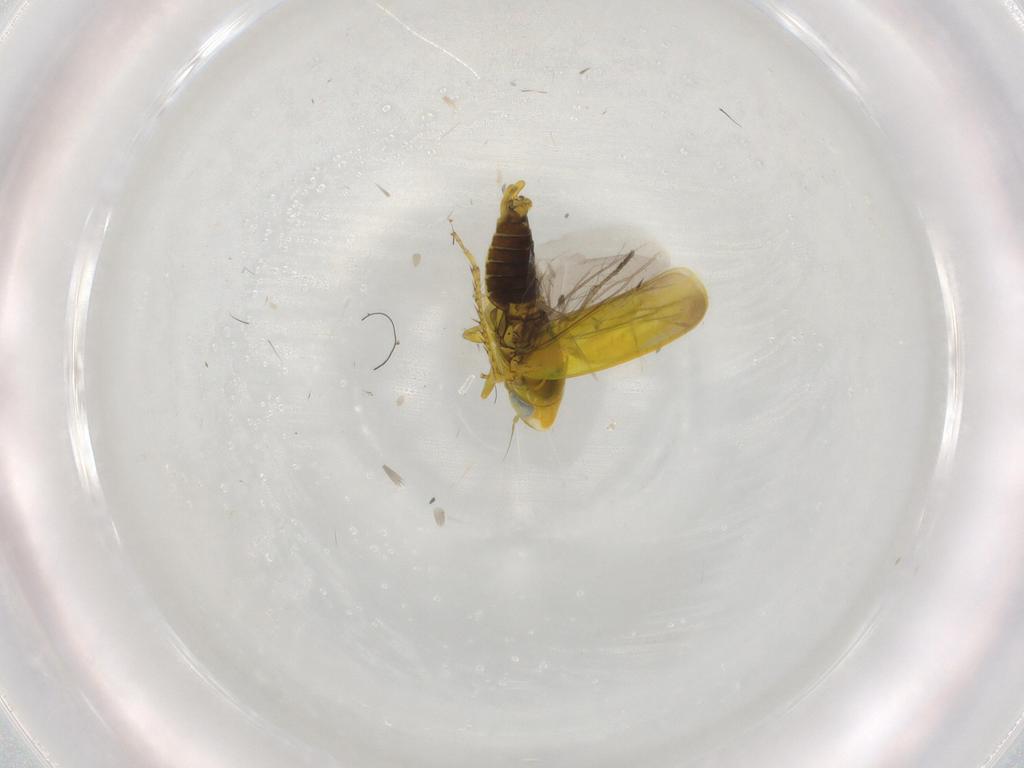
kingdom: Animalia
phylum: Arthropoda
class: Insecta
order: Hemiptera
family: Cicadellidae
